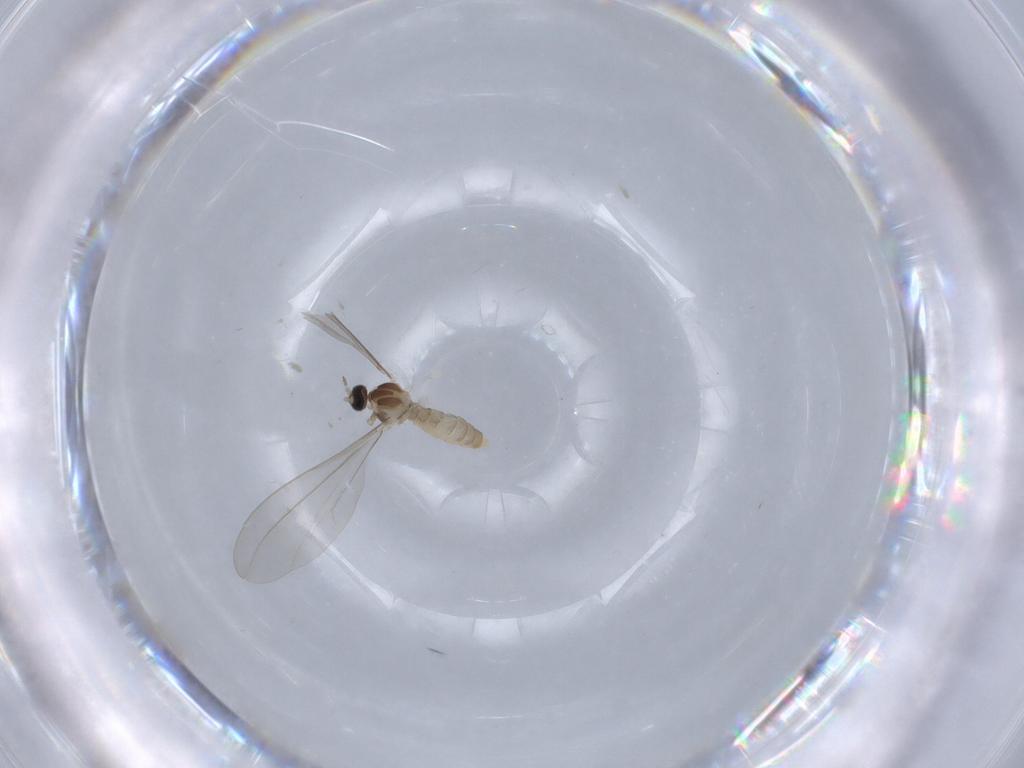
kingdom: Animalia
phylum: Arthropoda
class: Insecta
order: Diptera
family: Cecidomyiidae
